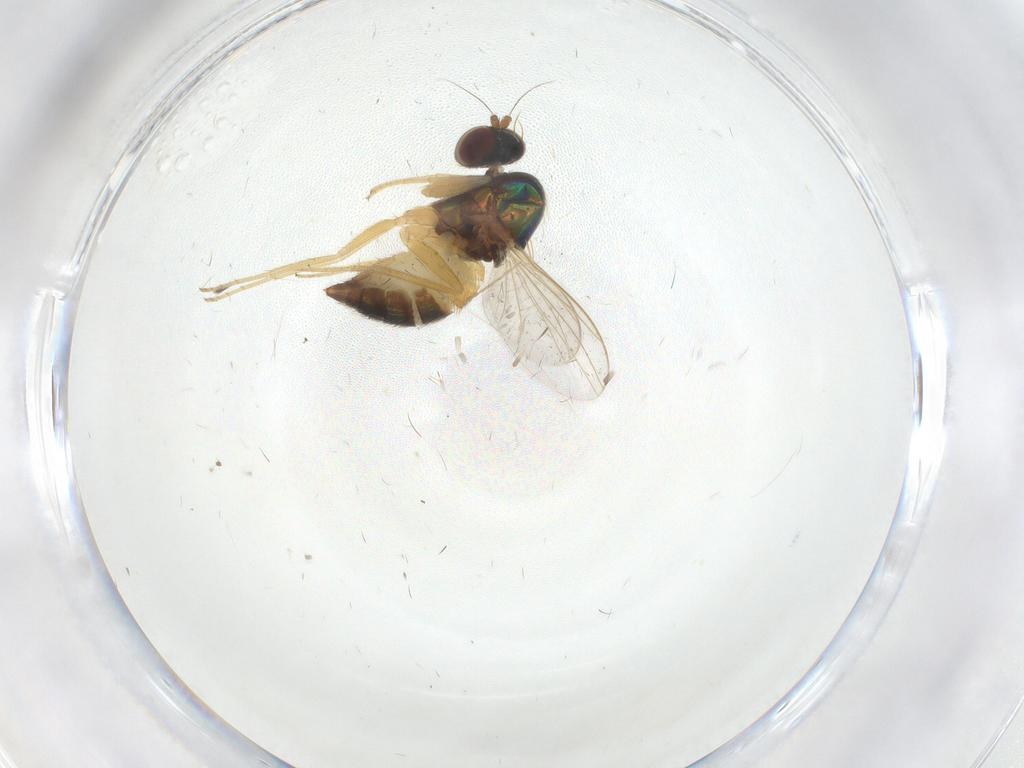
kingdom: Animalia
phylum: Arthropoda
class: Insecta
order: Diptera
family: Dolichopodidae
